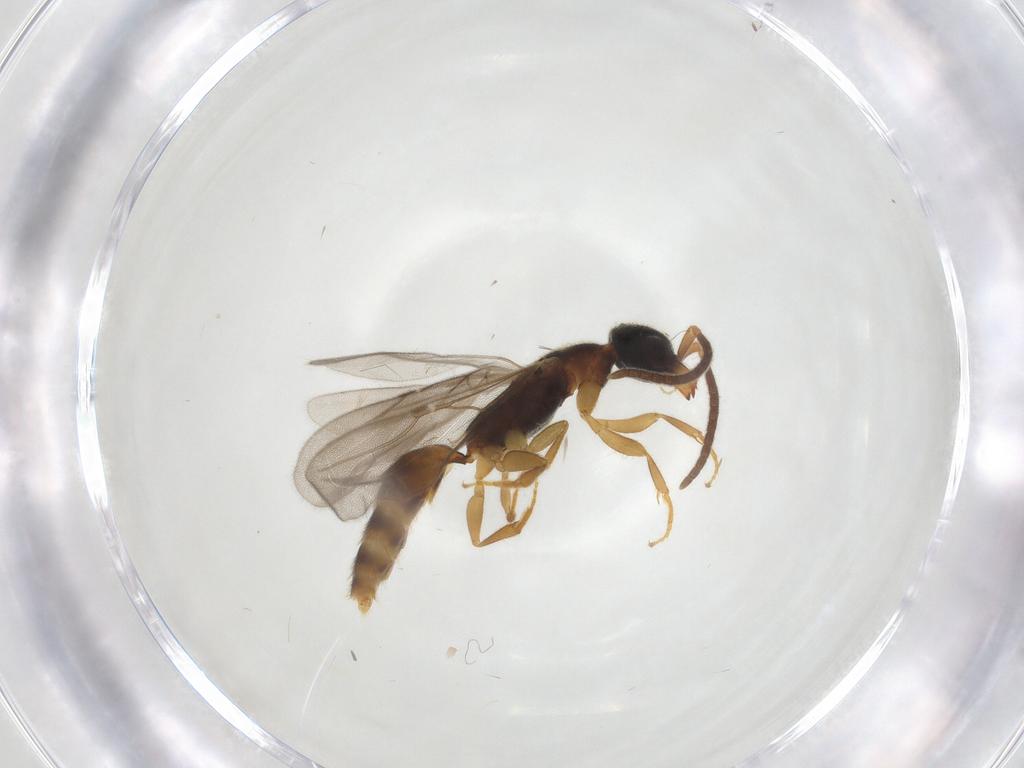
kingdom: Animalia
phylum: Arthropoda
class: Insecta
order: Hymenoptera
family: Bethylidae
